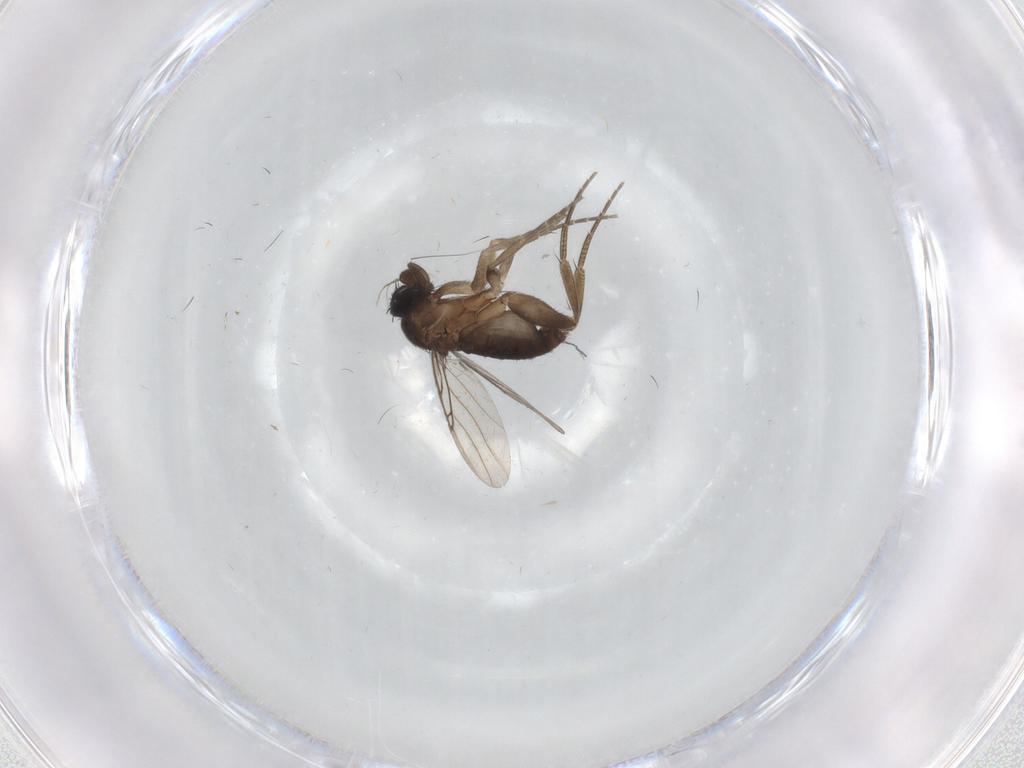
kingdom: Animalia
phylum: Arthropoda
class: Insecta
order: Diptera
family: Phoridae
